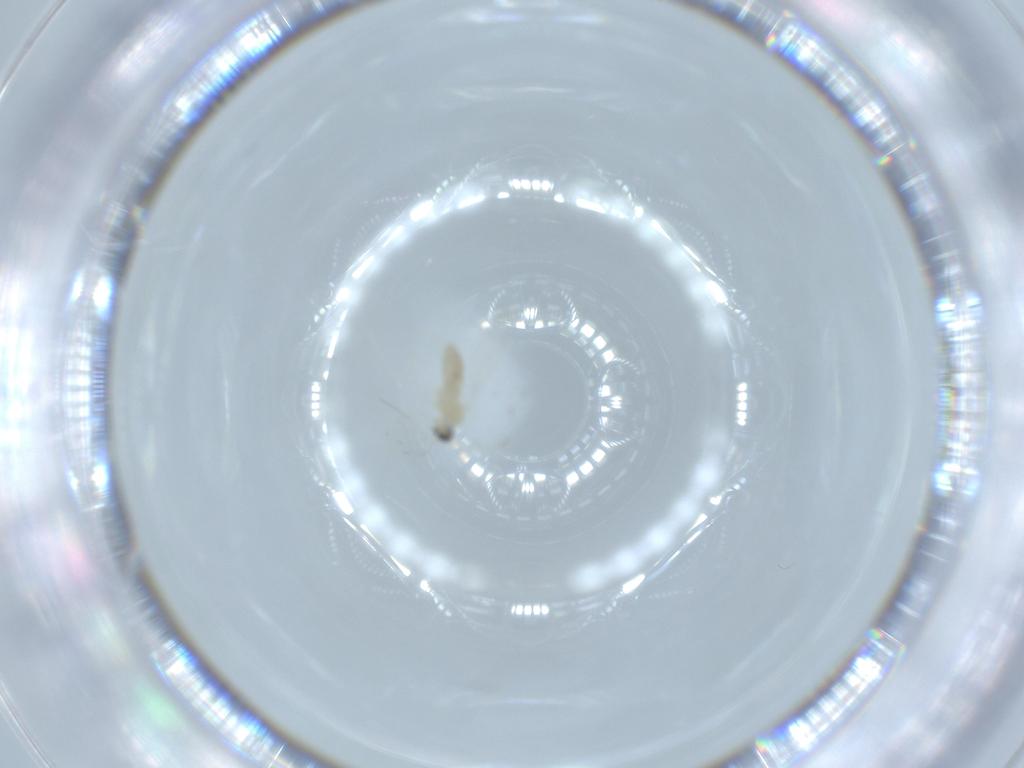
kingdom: Animalia
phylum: Arthropoda
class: Insecta
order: Diptera
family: Cecidomyiidae
